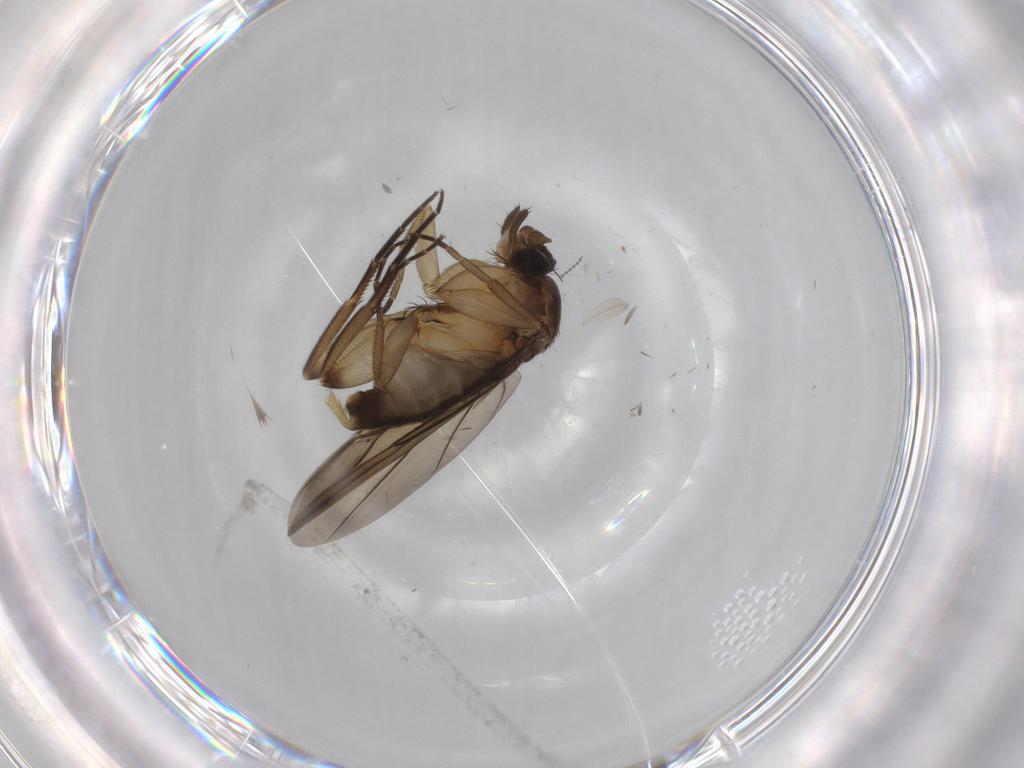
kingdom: Animalia
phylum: Arthropoda
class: Insecta
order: Diptera
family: Phoridae
